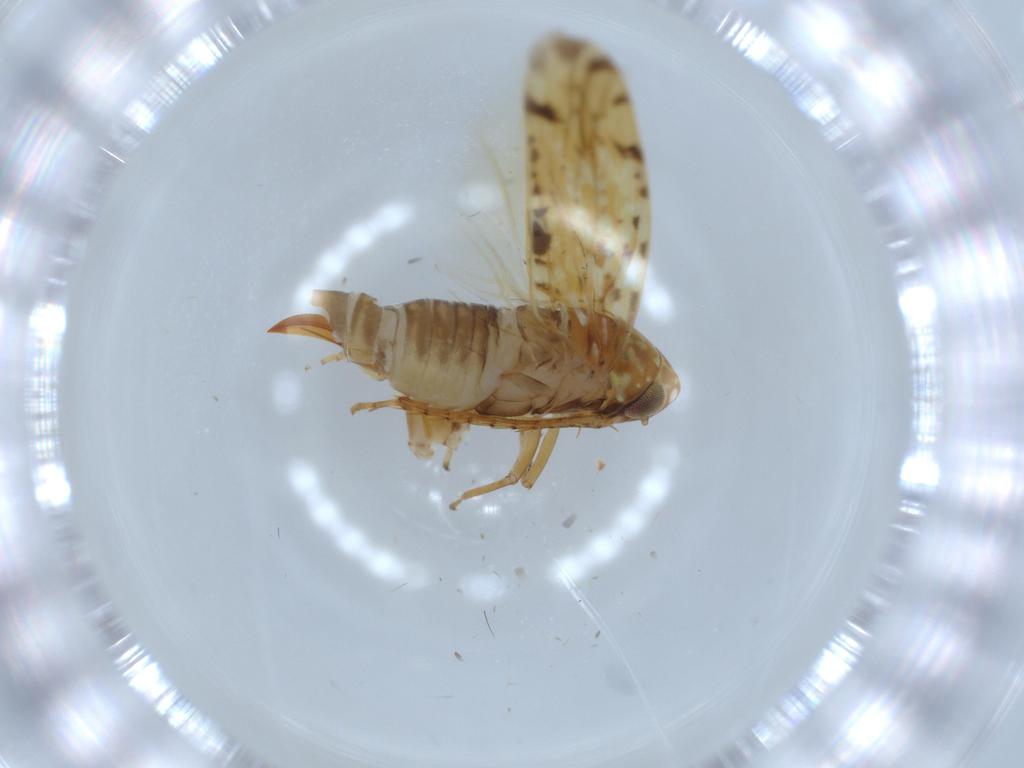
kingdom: Animalia
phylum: Arthropoda
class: Insecta
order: Hemiptera
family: Cicadellidae
